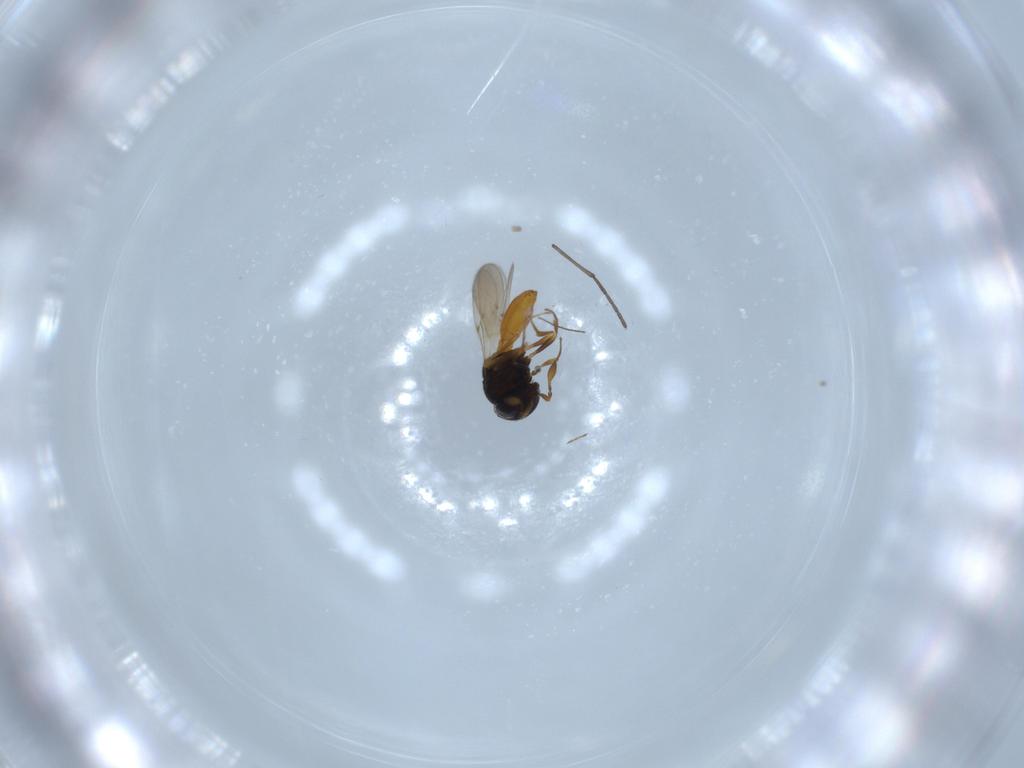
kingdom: Animalia
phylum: Arthropoda
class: Insecta
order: Hymenoptera
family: Scelionidae
